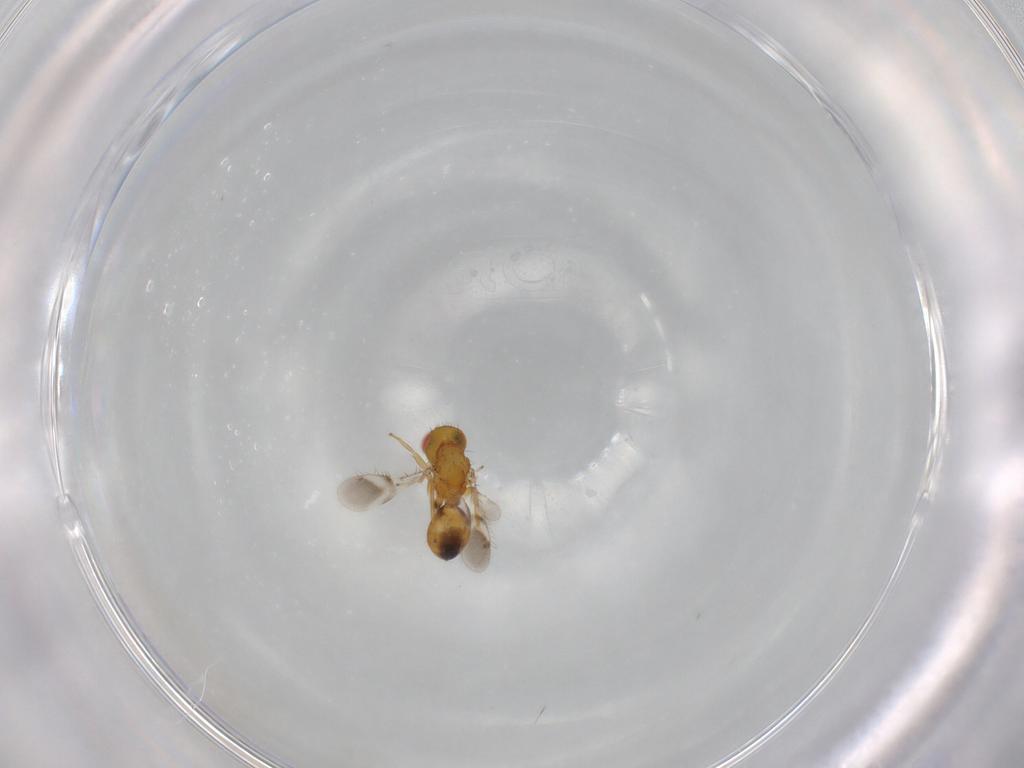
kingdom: Animalia
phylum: Arthropoda
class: Insecta
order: Hymenoptera
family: Eulophidae
